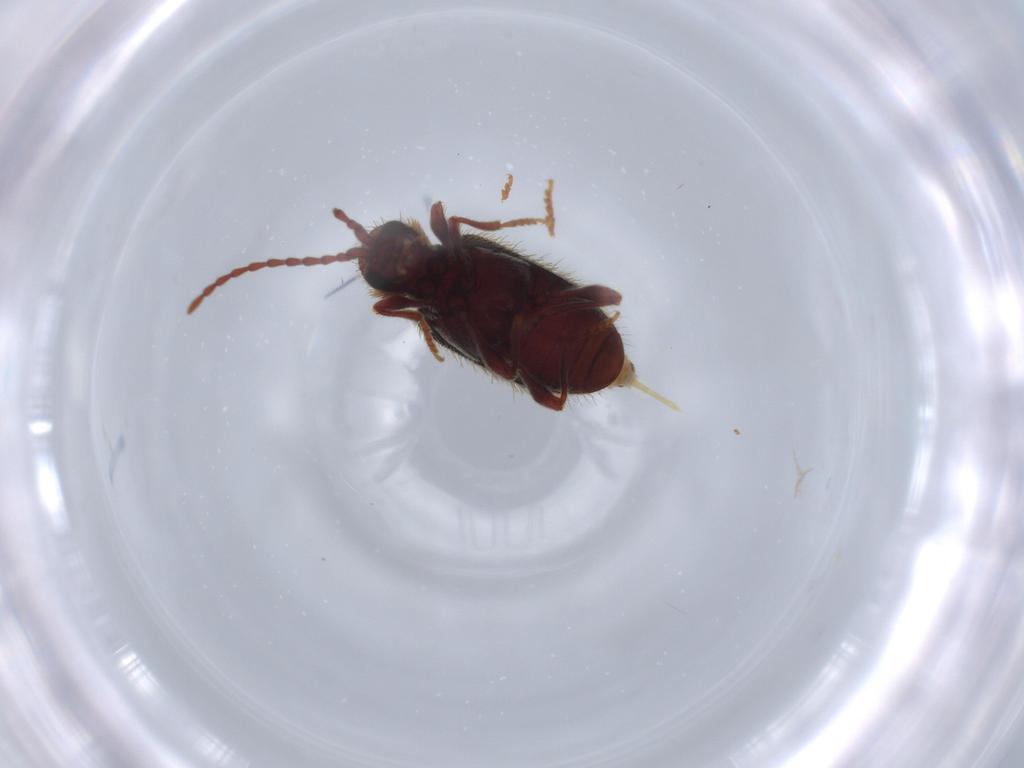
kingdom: Animalia
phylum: Arthropoda
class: Insecta
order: Coleoptera
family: Ptinidae
